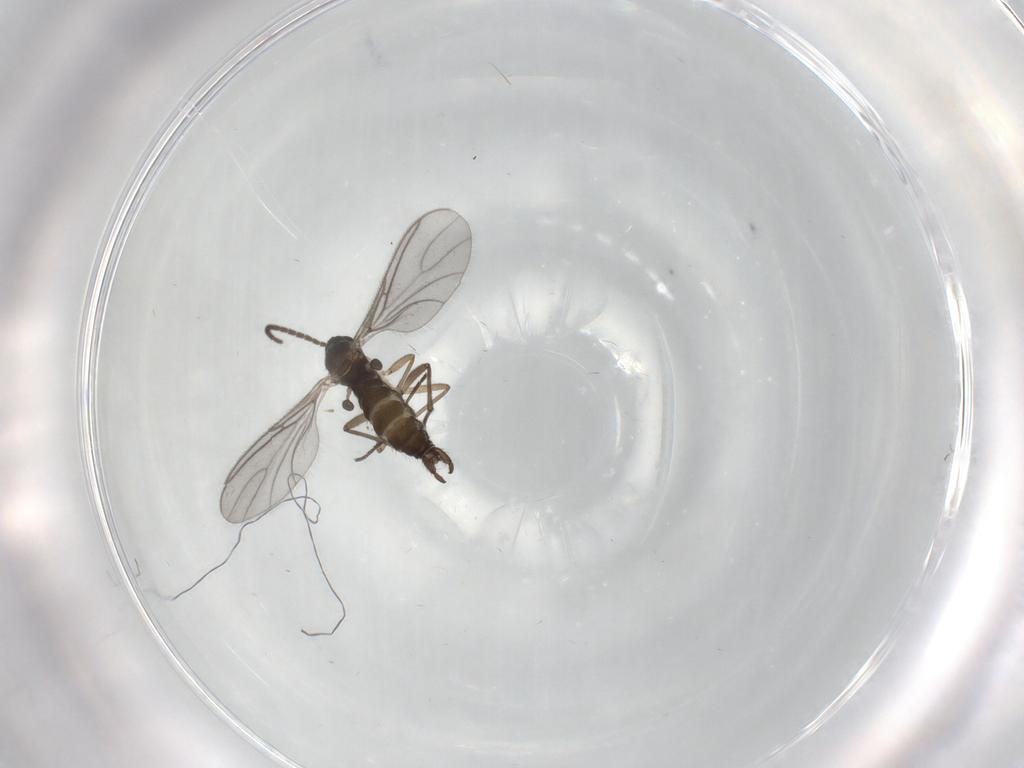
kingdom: Animalia
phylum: Arthropoda
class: Insecta
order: Diptera
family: Sciaridae
